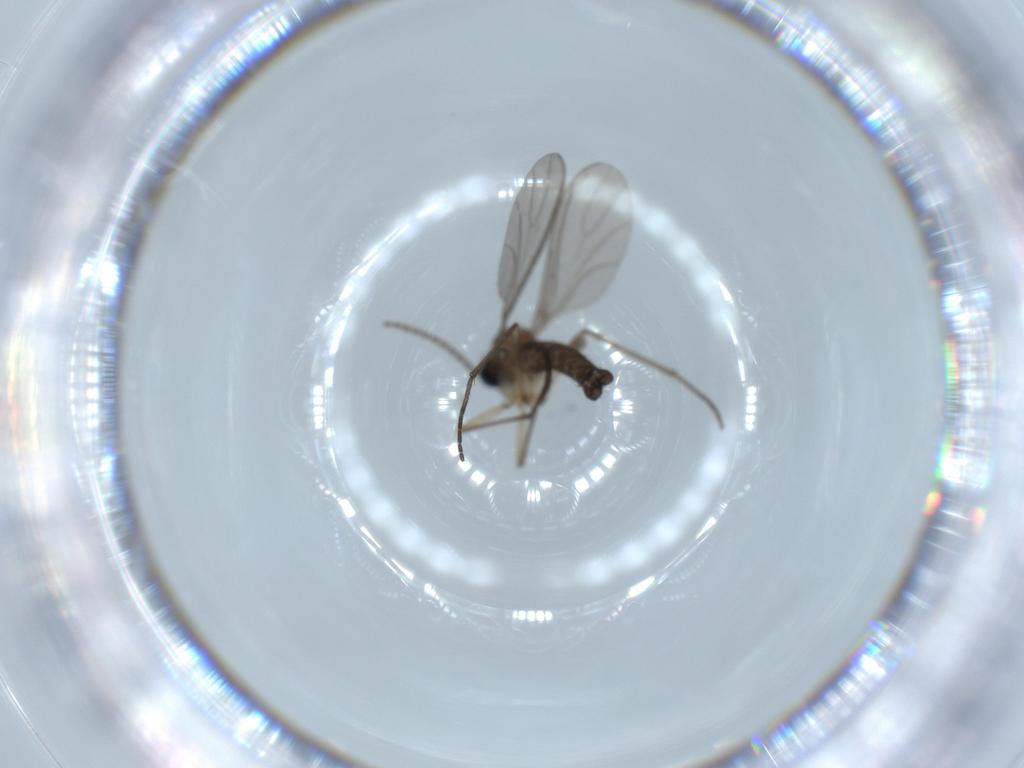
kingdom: Animalia
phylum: Arthropoda
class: Insecta
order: Diptera
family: Sciaridae
